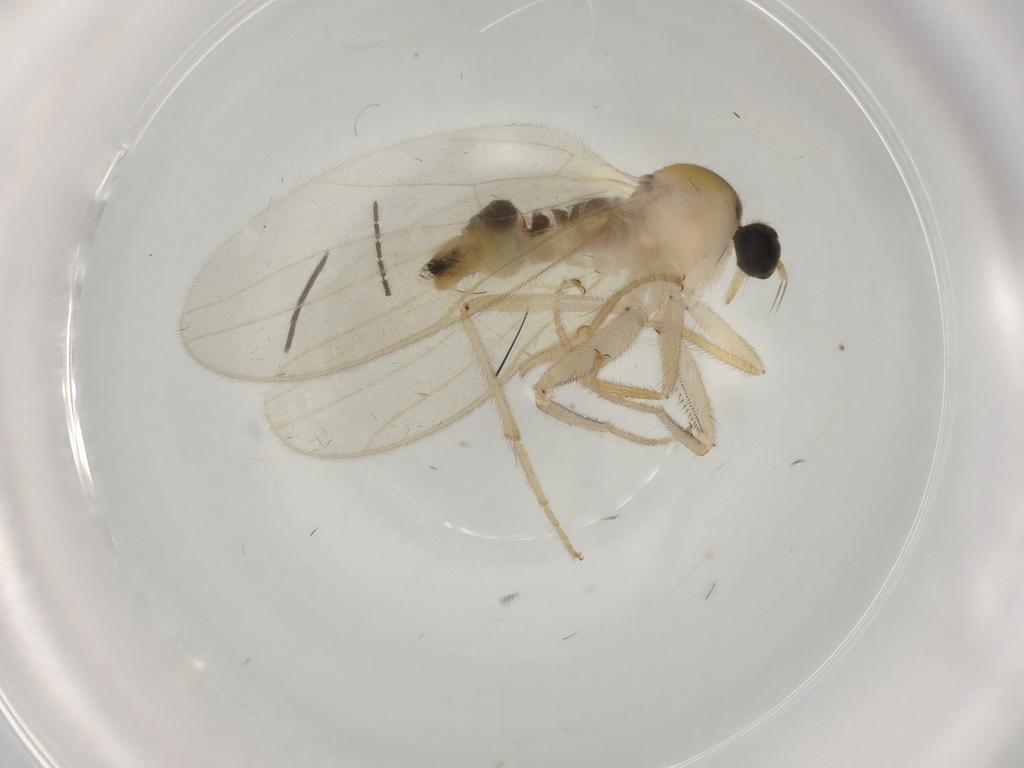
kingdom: Animalia
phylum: Arthropoda
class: Insecta
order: Diptera
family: Hybotidae
